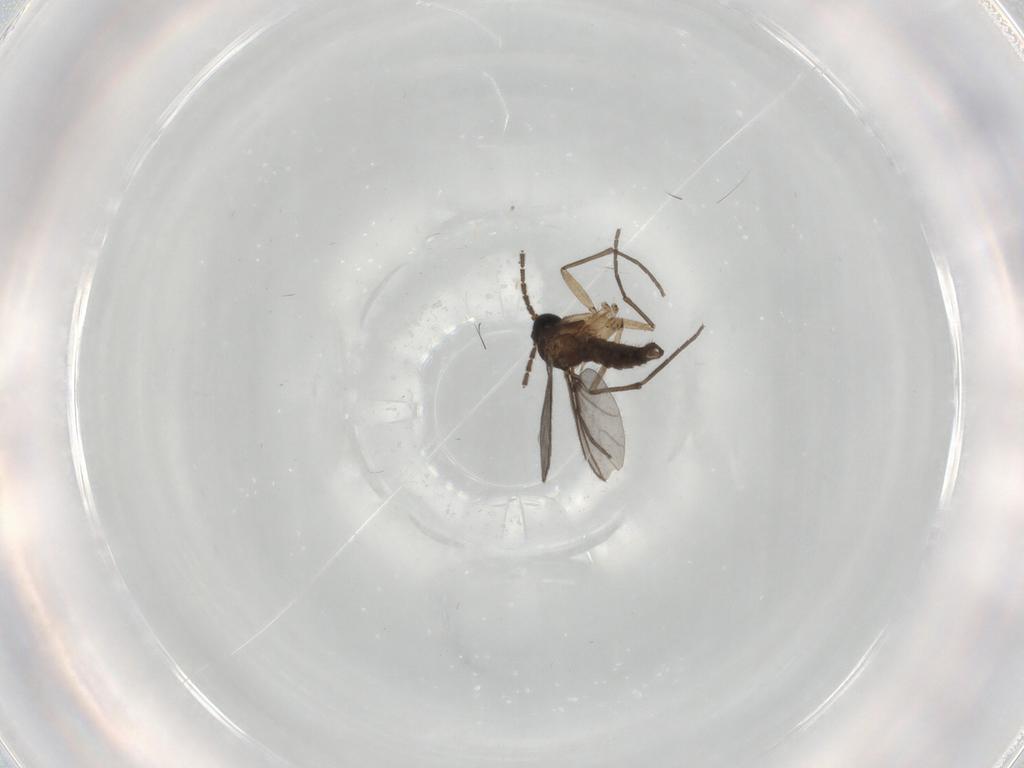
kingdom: Animalia
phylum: Arthropoda
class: Insecta
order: Diptera
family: Sciaridae
